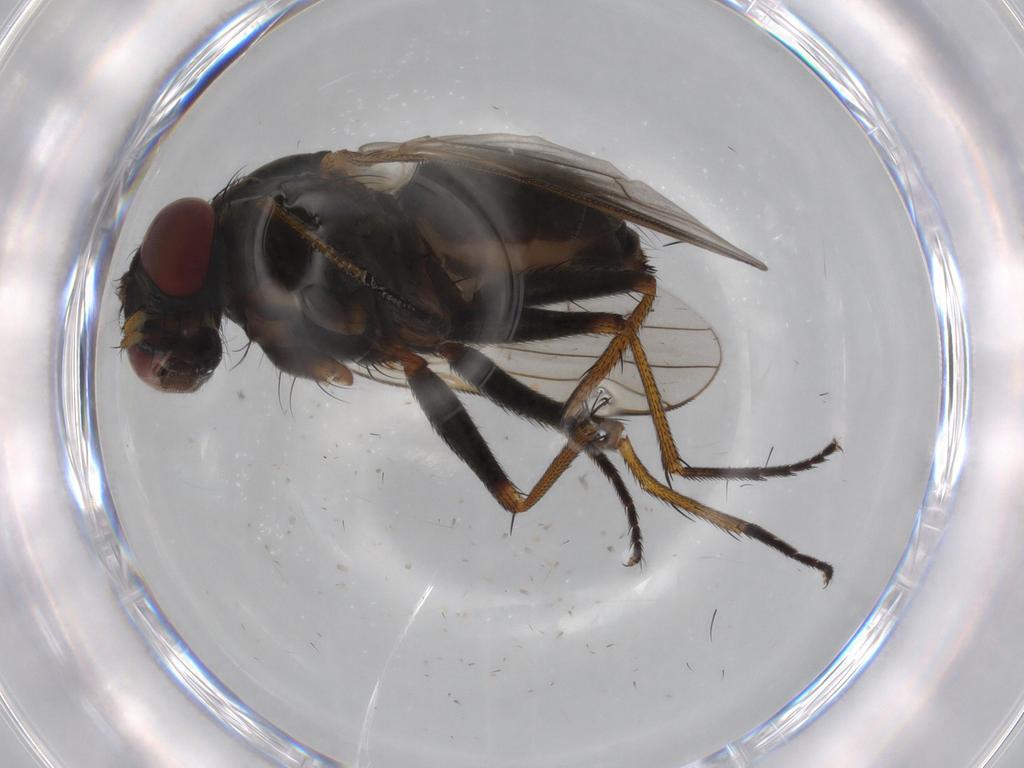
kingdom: Animalia
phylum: Arthropoda
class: Insecta
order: Diptera
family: Muscidae
